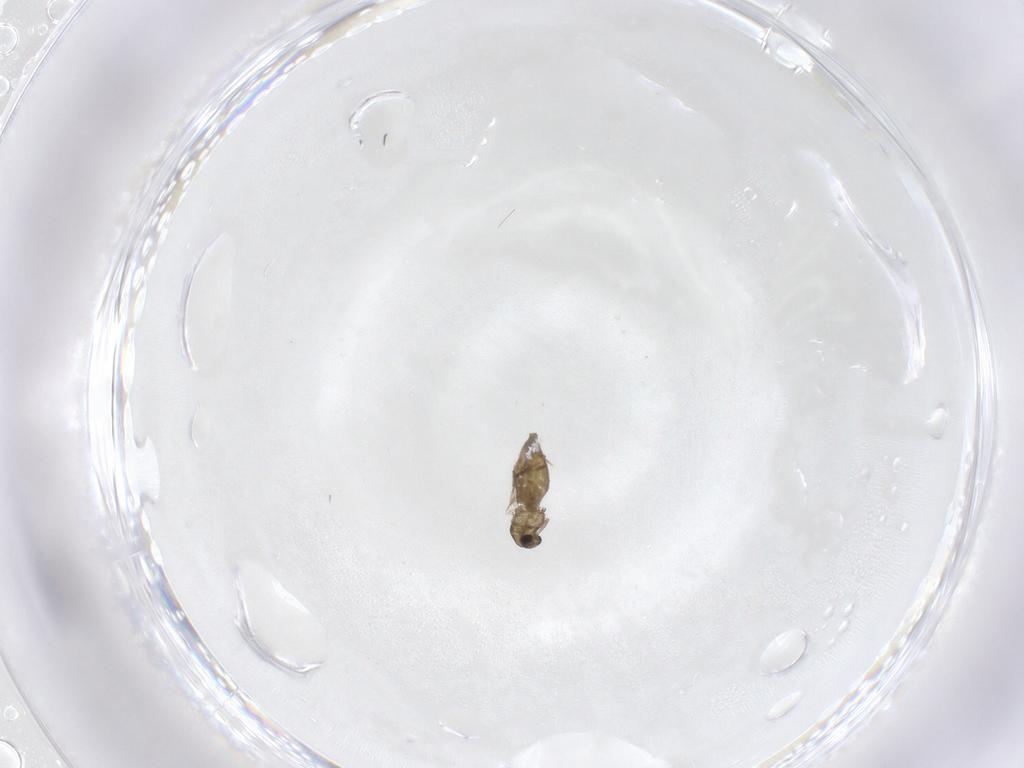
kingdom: Animalia
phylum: Arthropoda
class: Insecta
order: Diptera
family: Chironomidae
